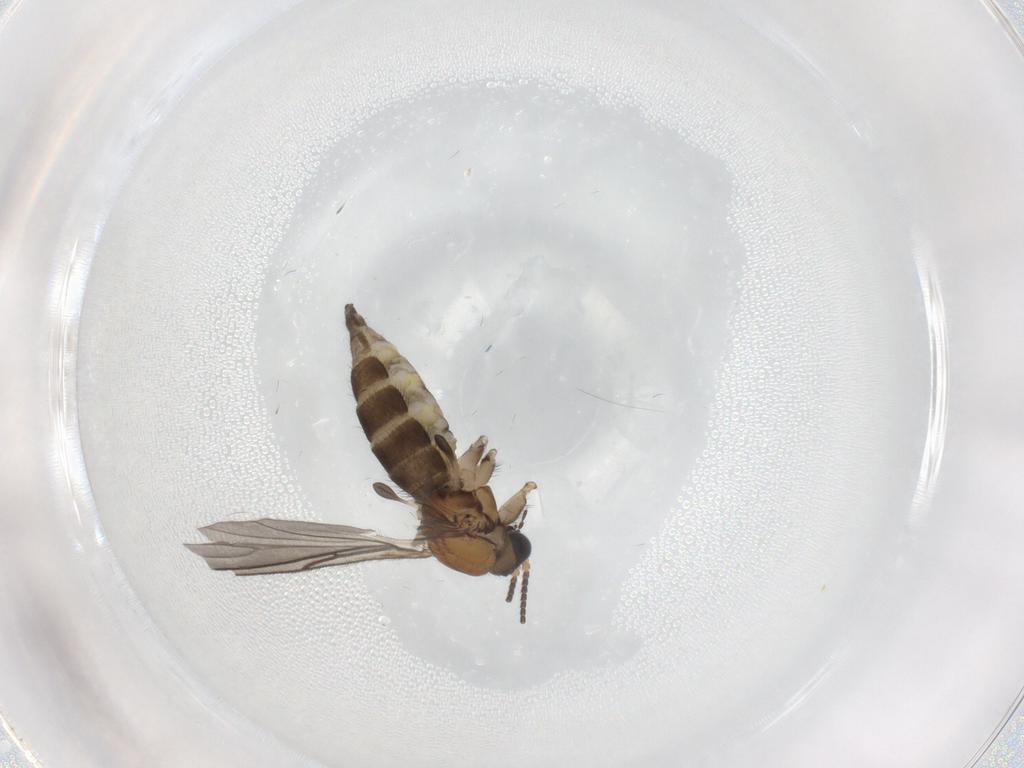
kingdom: Animalia
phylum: Arthropoda
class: Insecta
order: Diptera
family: Sciaridae
